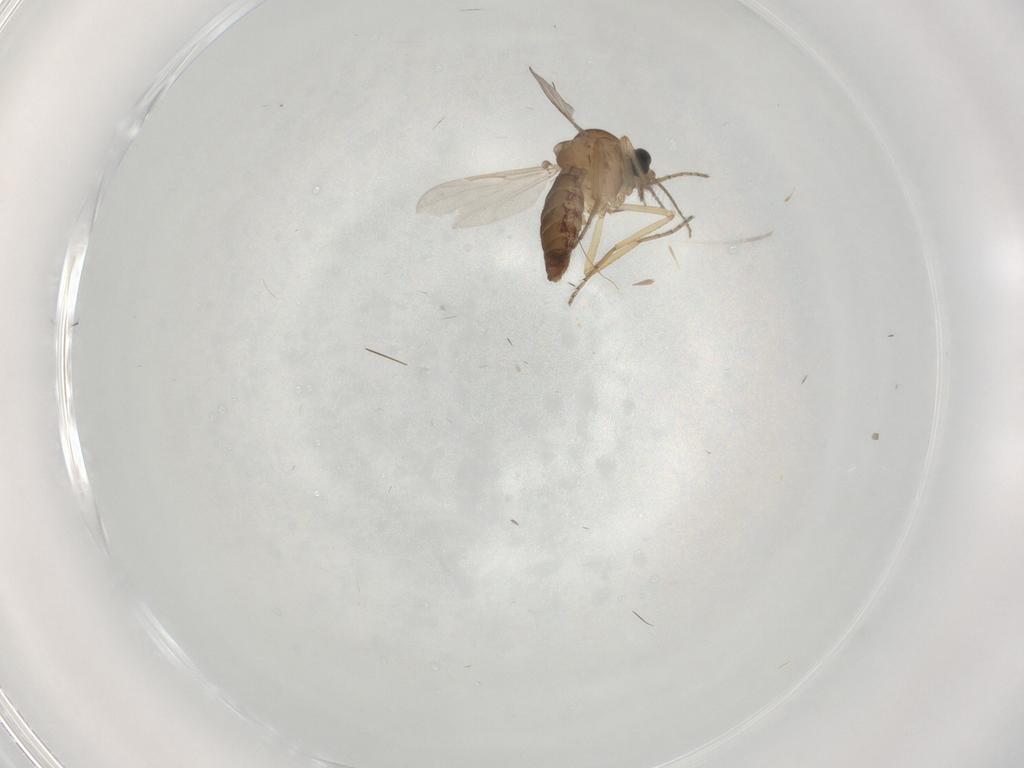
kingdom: Animalia
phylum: Arthropoda
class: Insecta
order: Diptera
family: Ceratopogonidae
